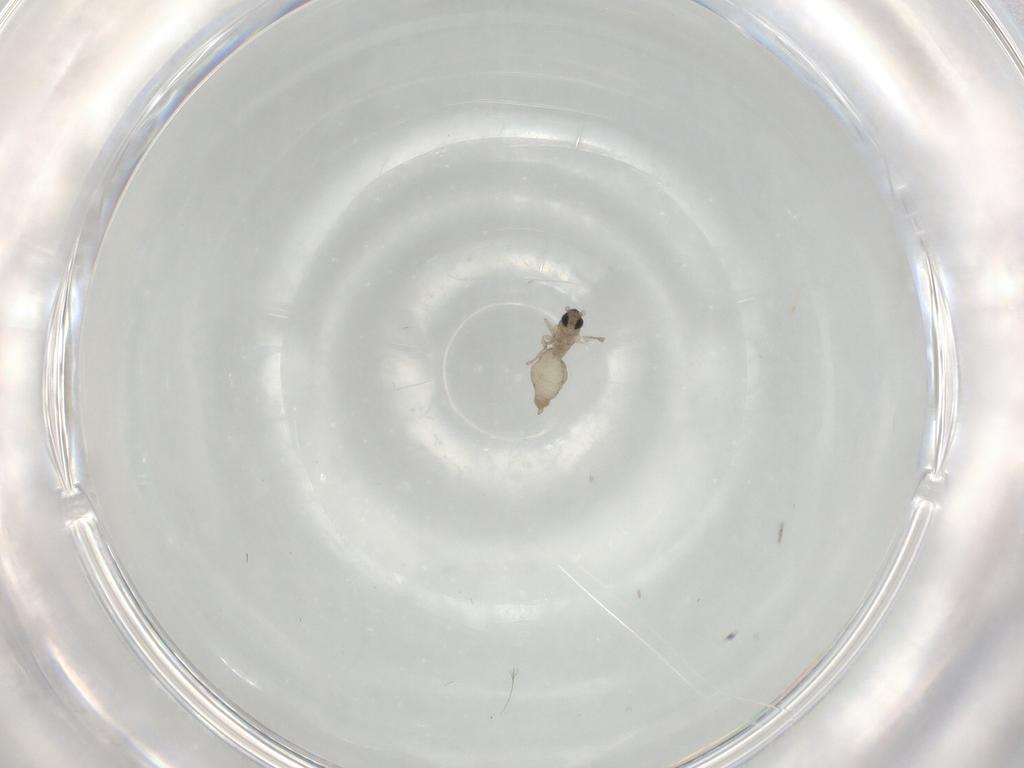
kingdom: Animalia
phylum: Arthropoda
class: Insecta
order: Diptera
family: Cecidomyiidae
